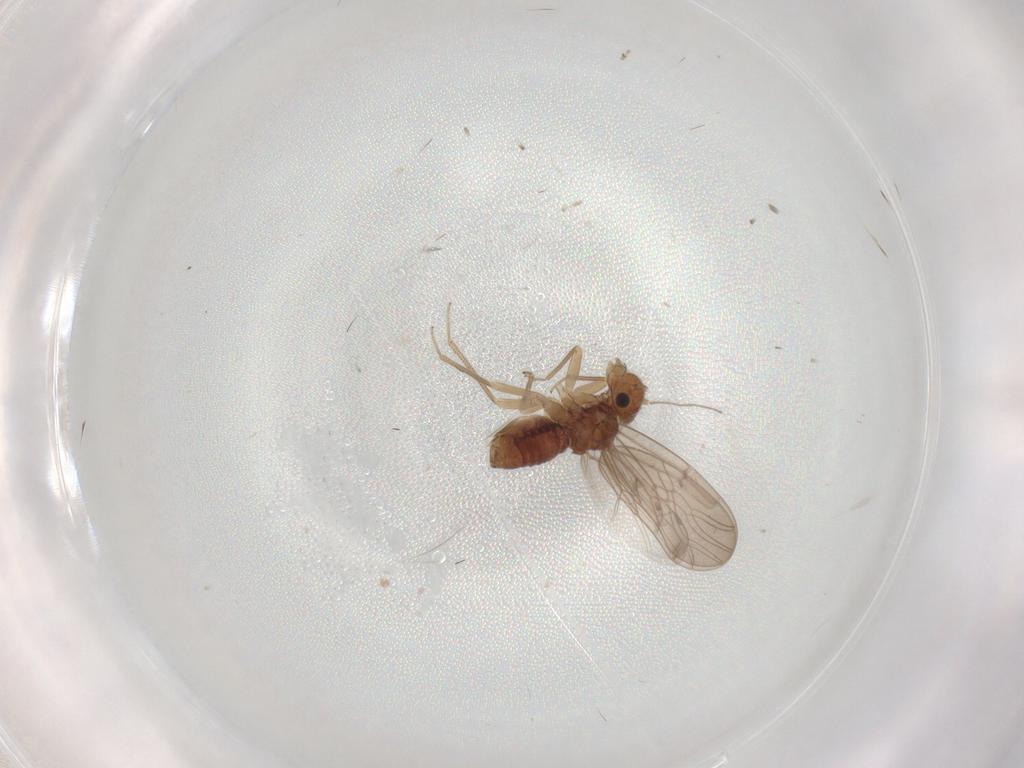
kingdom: Animalia
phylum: Arthropoda
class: Insecta
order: Psocodea
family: Ectopsocidae
